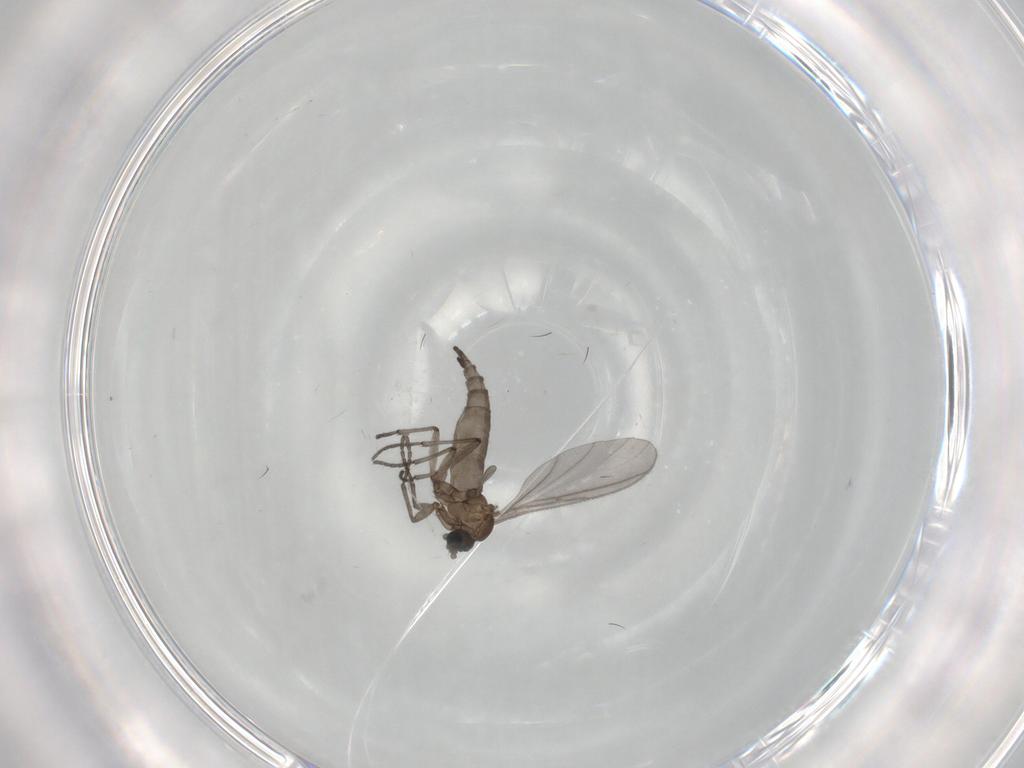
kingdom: Animalia
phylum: Arthropoda
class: Insecta
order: Diptera
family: Sciaridae
